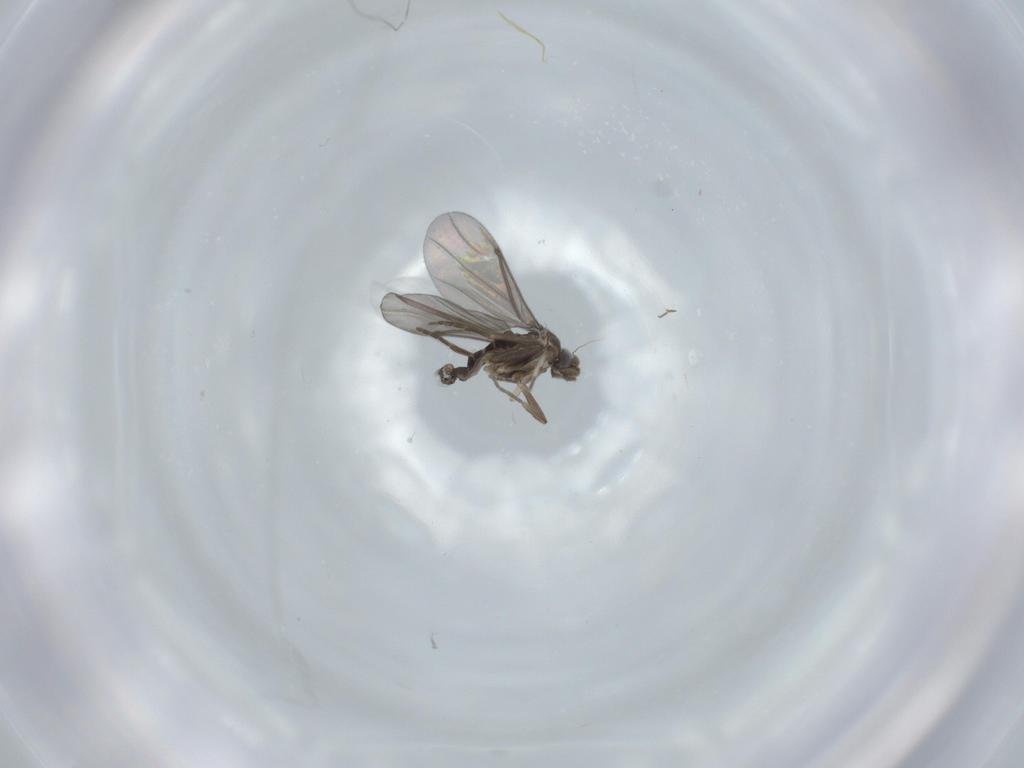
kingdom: Animalia
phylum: Arthropoda
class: Insecta
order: Diptera
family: Phoridae
